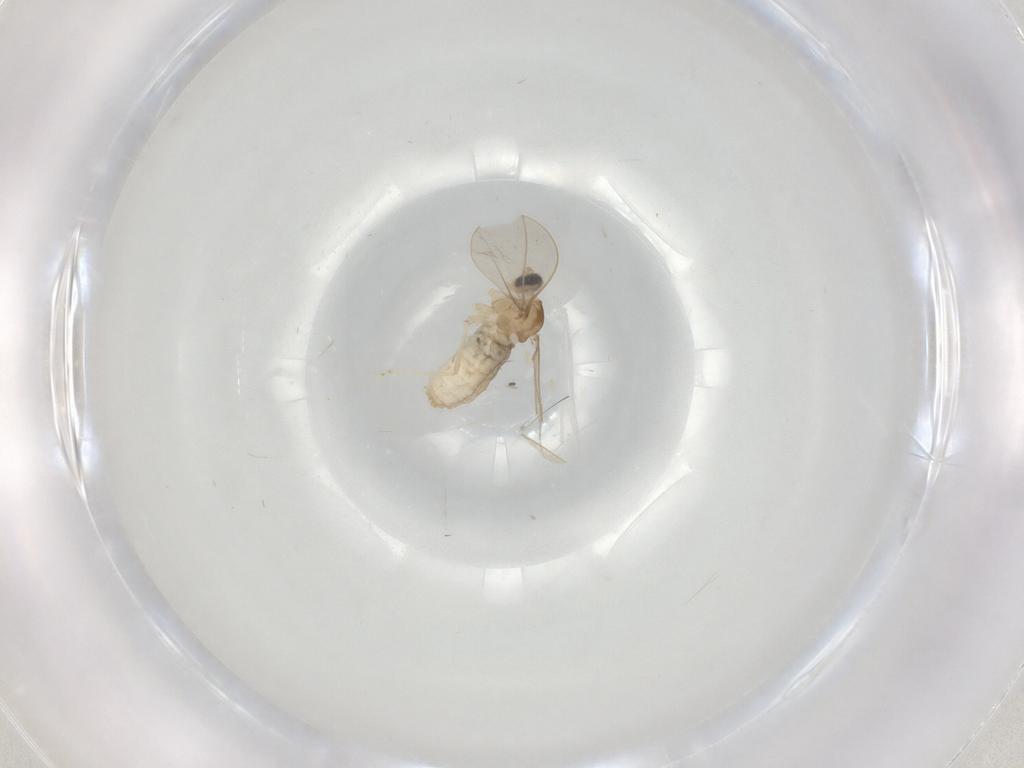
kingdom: Animalia
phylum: Arthropoda
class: Insecta
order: Diptera
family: Cecidomyiidae
